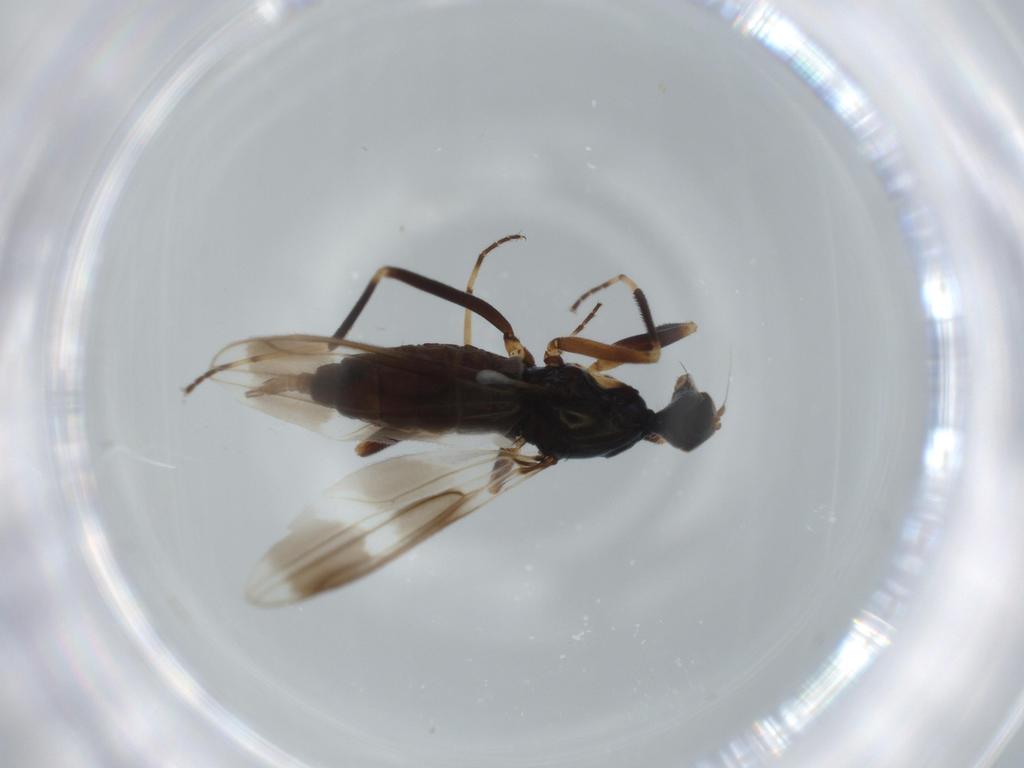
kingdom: Animalia
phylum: Arthropoda
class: Insecta
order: Diptera
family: Hybotidae
